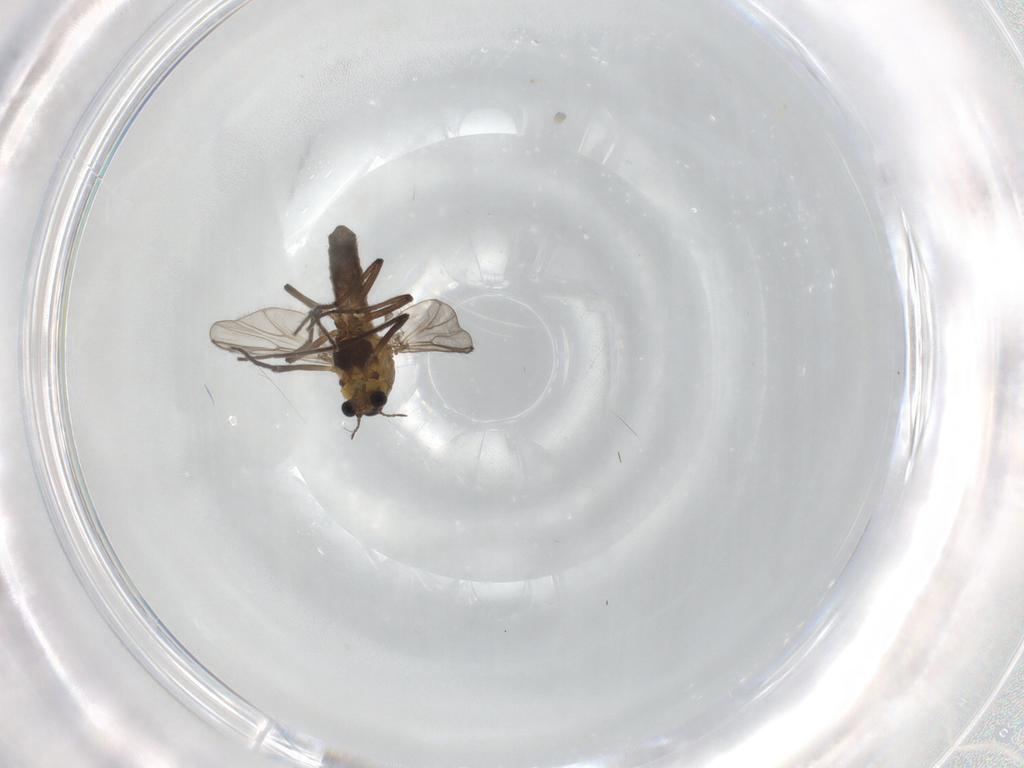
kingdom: Animalia
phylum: Arthropoda
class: Insecta
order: Diptera
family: Chironomidae
